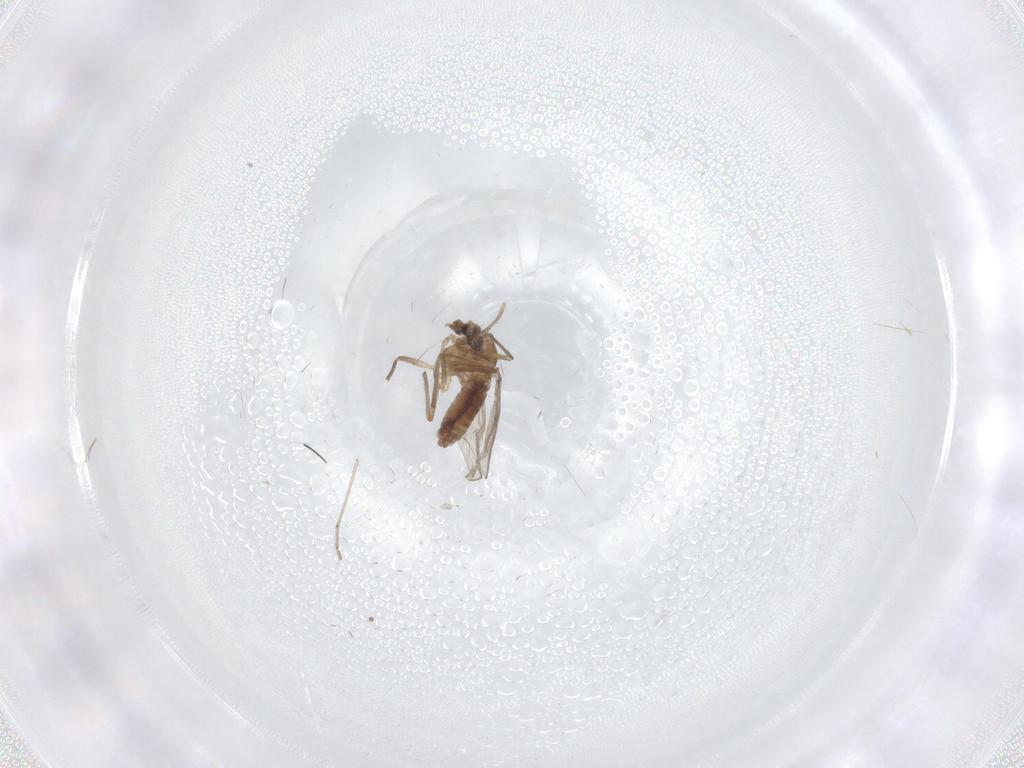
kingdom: Animalia
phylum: Arthropoda
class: Insecta
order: Diptera
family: Chironomidae
